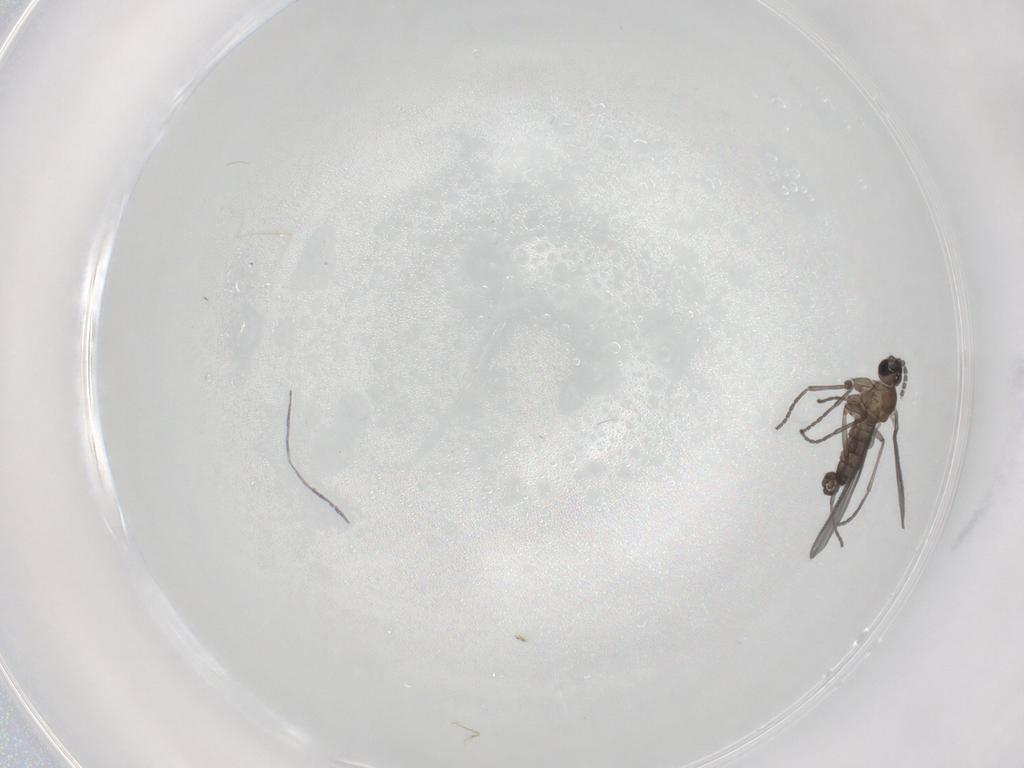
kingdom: Animalia
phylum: Arthropoda
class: Insecta
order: Diptera
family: Sciaridae
